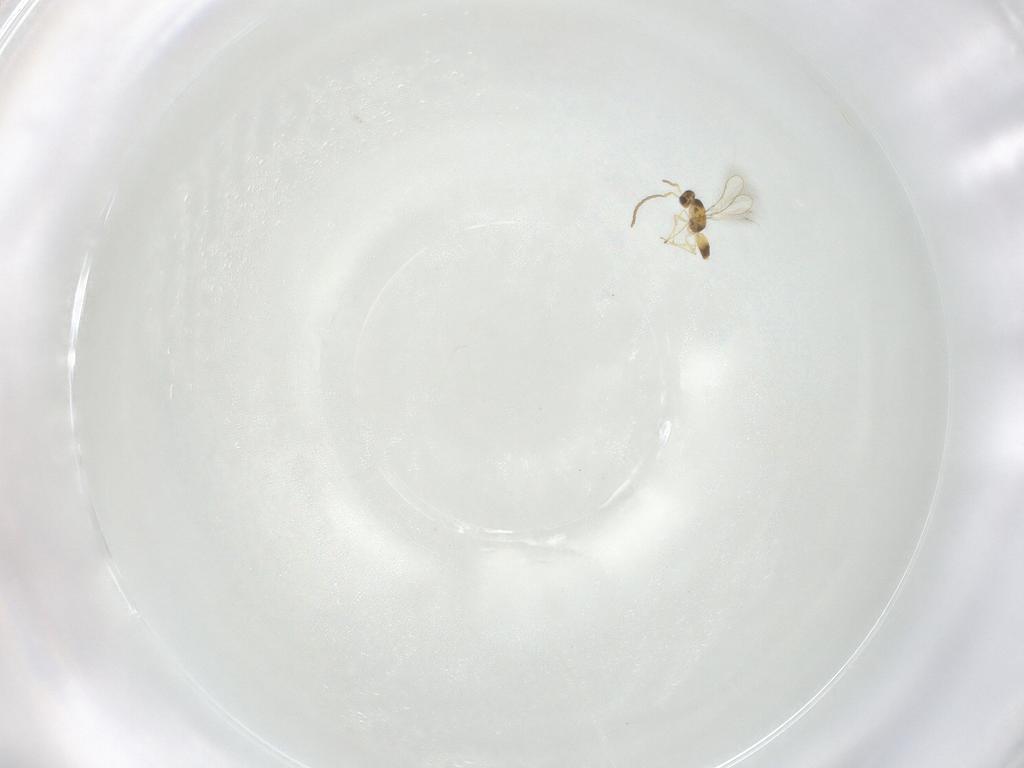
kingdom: Animalia
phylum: Arthropoda
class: Insecta
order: Hymenoptera
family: Mymaridae
